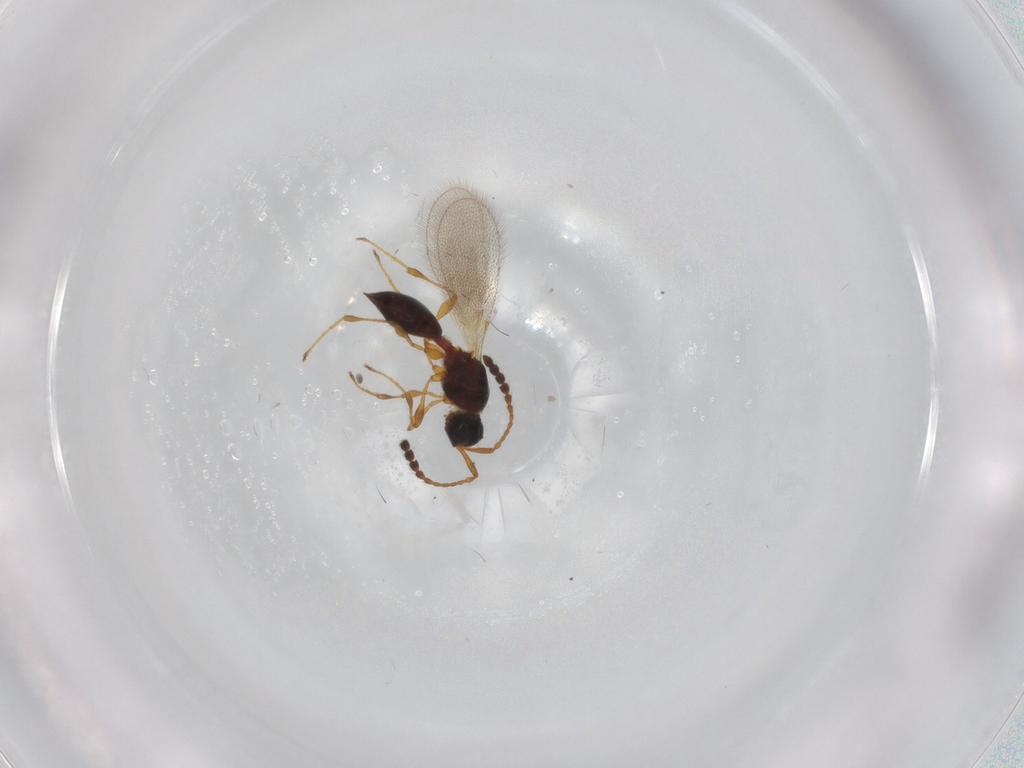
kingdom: Animalia
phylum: Arthropoda
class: Insecta
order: Hymenoptera
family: Diapriidae
